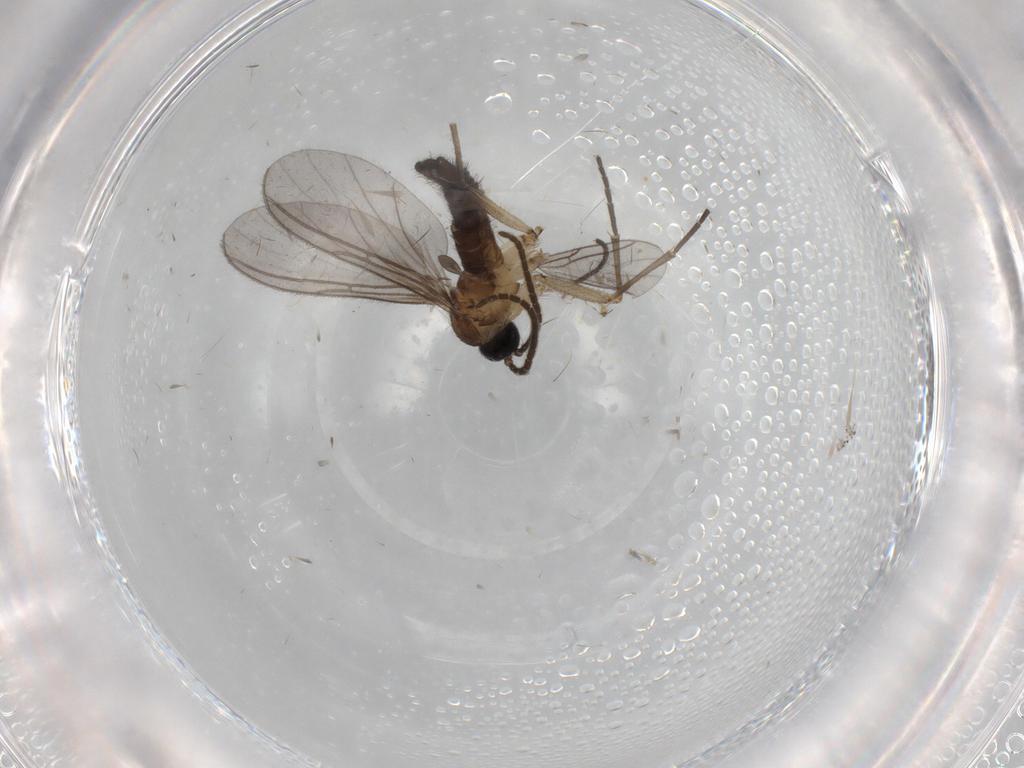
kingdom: Animalia
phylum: Arthropoda
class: Insecta
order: Diptera
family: Sciaridae
